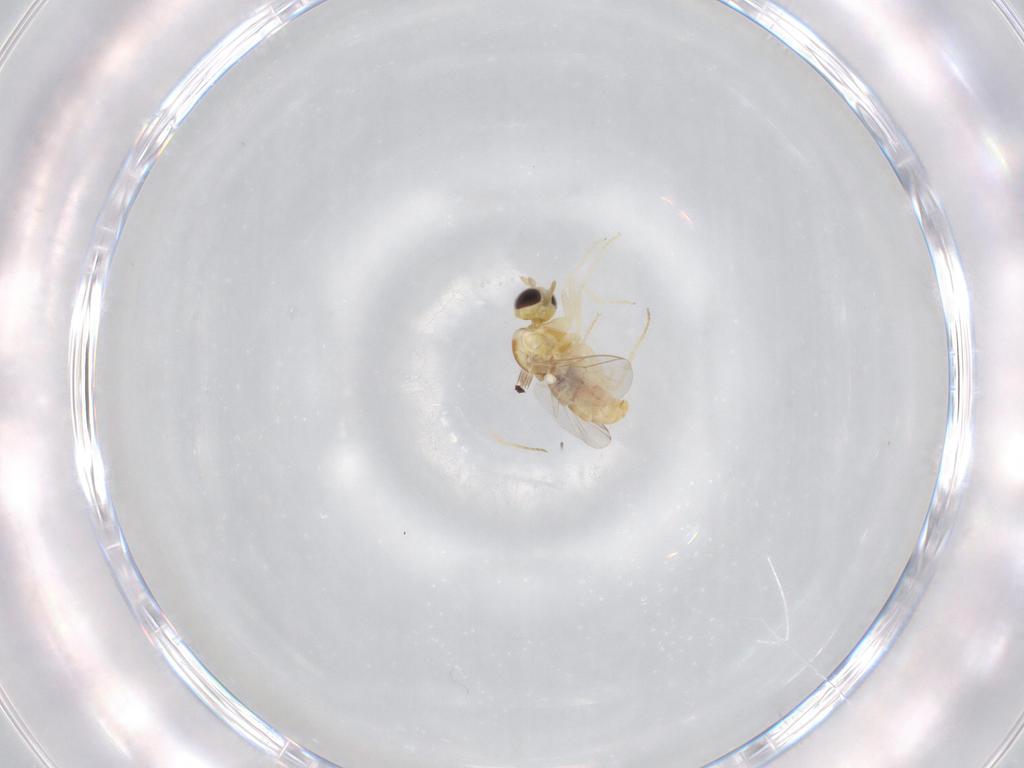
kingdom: Animalia
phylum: Arthropoda
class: Insecta
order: Diptera
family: Mythicomyiidae
